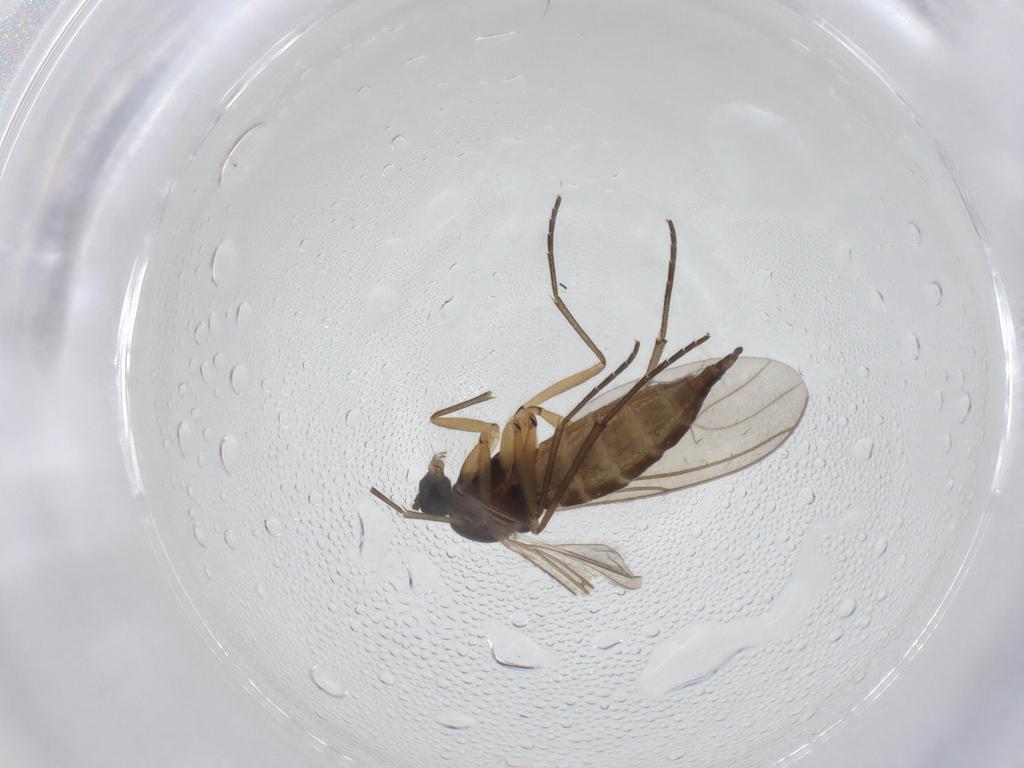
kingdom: Animalia
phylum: Arthropoda
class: Insecta
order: Diptera
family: Sciaridae
